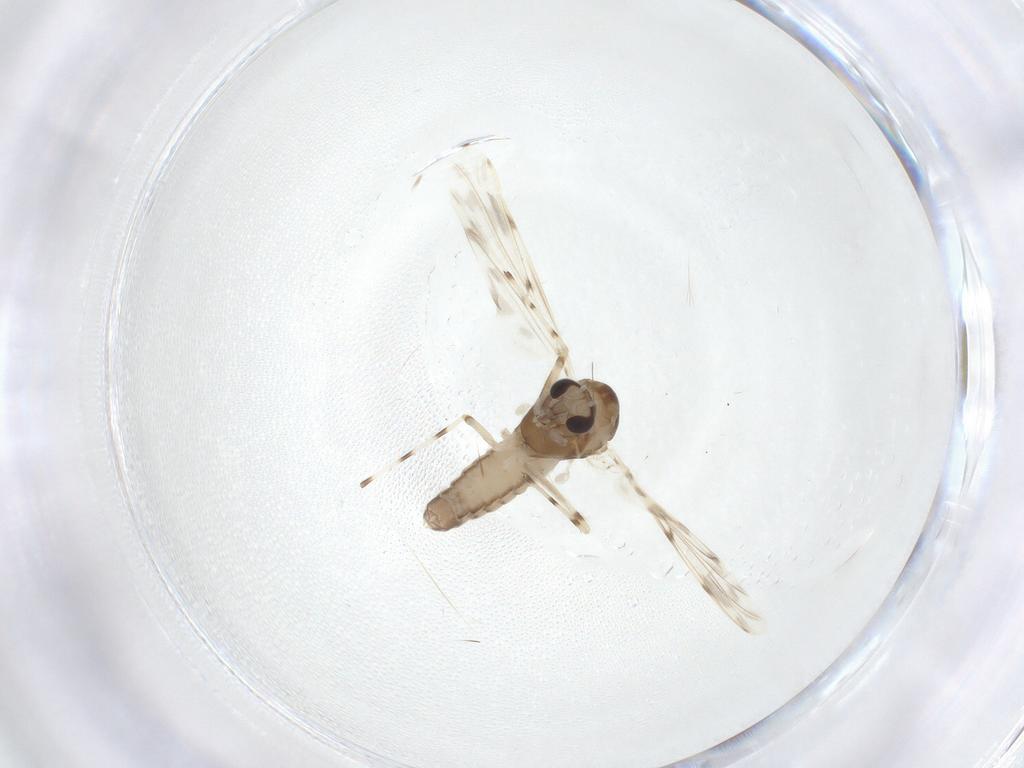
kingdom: Animalia
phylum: Arthropoda
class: Insecta
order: Diptera
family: Chironomidae
